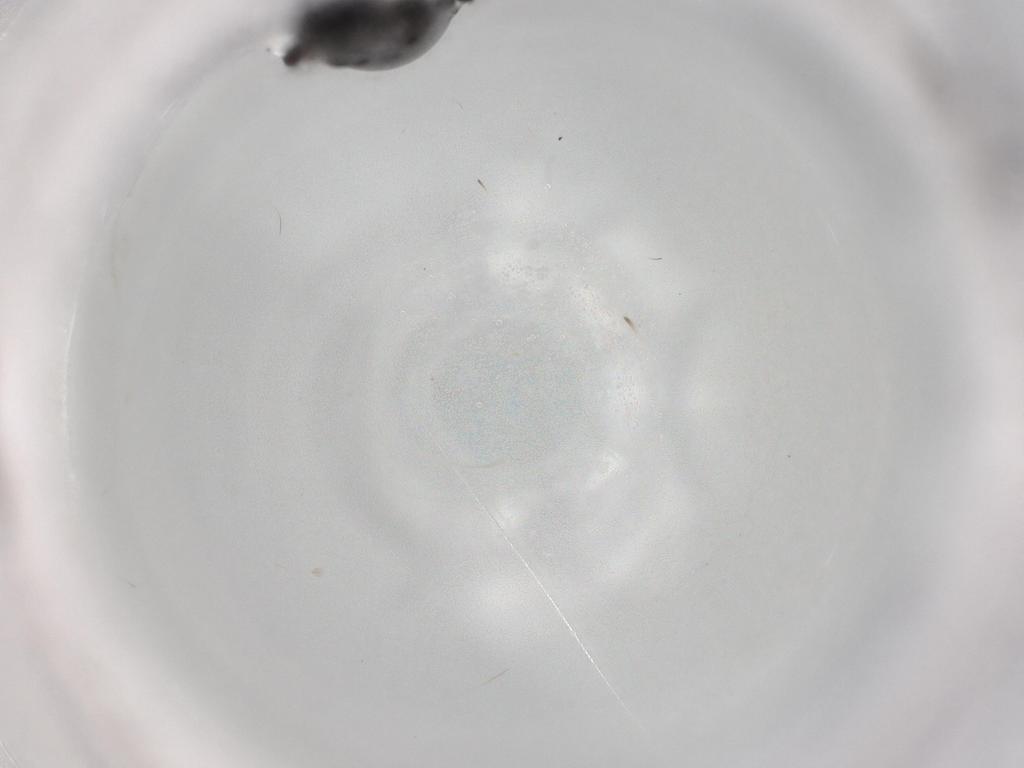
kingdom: Animalia
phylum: Arthropoda
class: Insecta
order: Coleoptera
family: Carabidae
